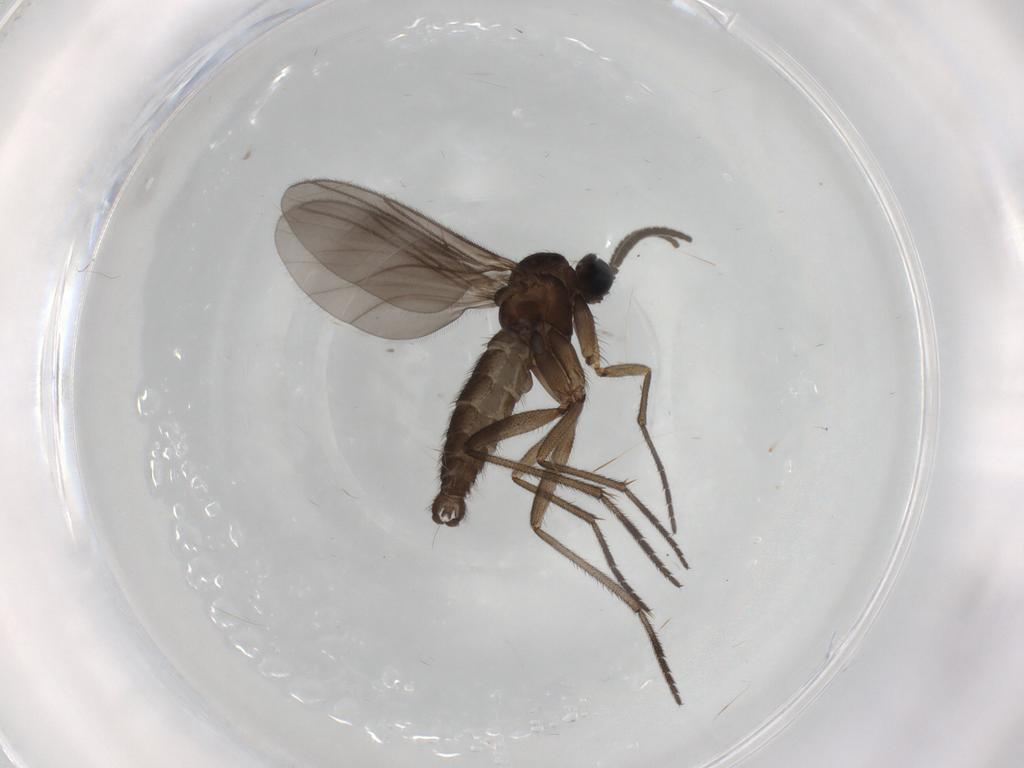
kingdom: Animalia
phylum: Arthropoda
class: Insecta
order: Diptera
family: Sciaridae
